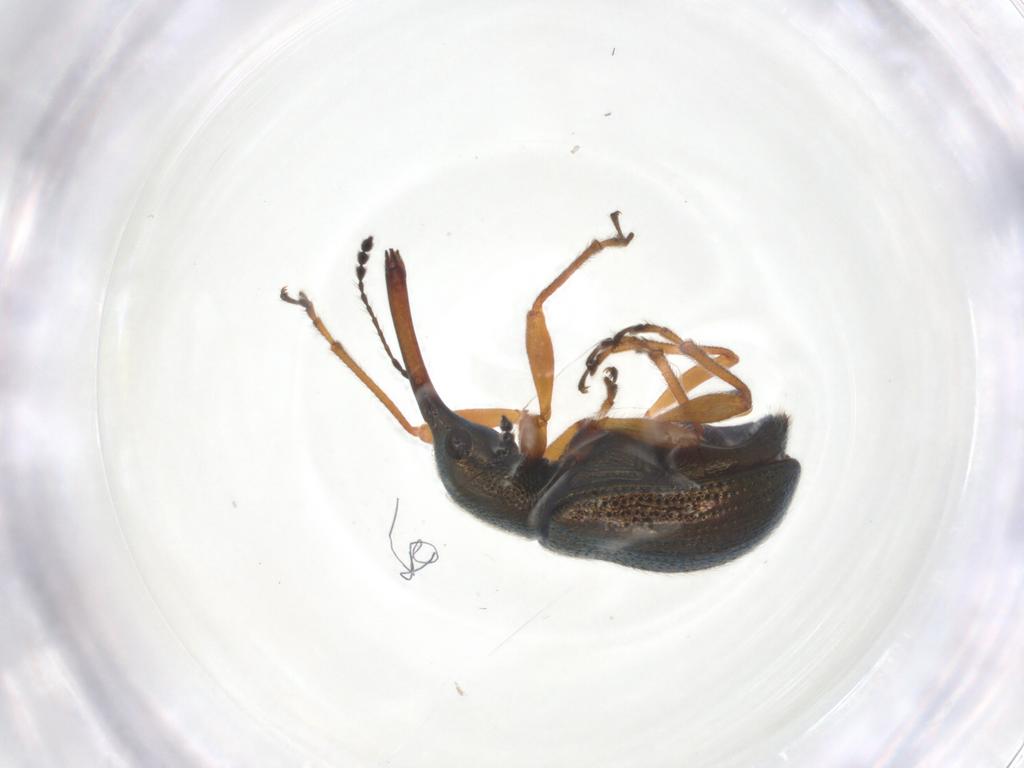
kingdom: Animalia
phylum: Arthropoda
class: Insecta
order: Coleoptera
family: Attelabidae
